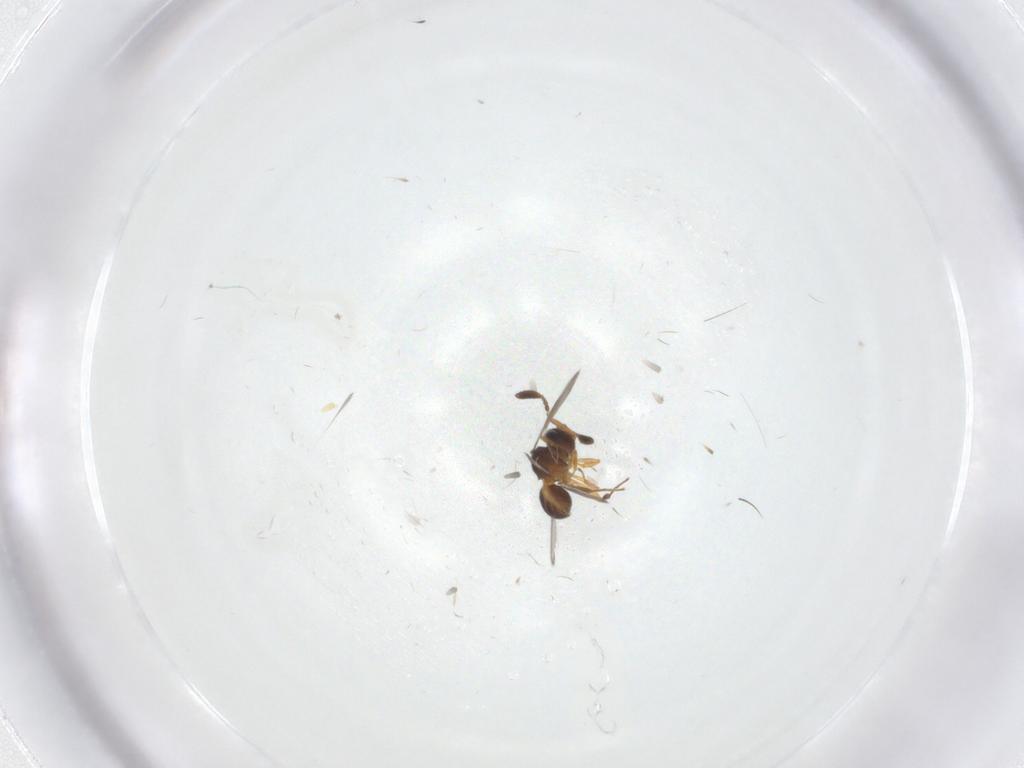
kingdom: Animalia
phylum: Arthropoda
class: Insecta
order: Hymenoptera
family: Scelionidae
